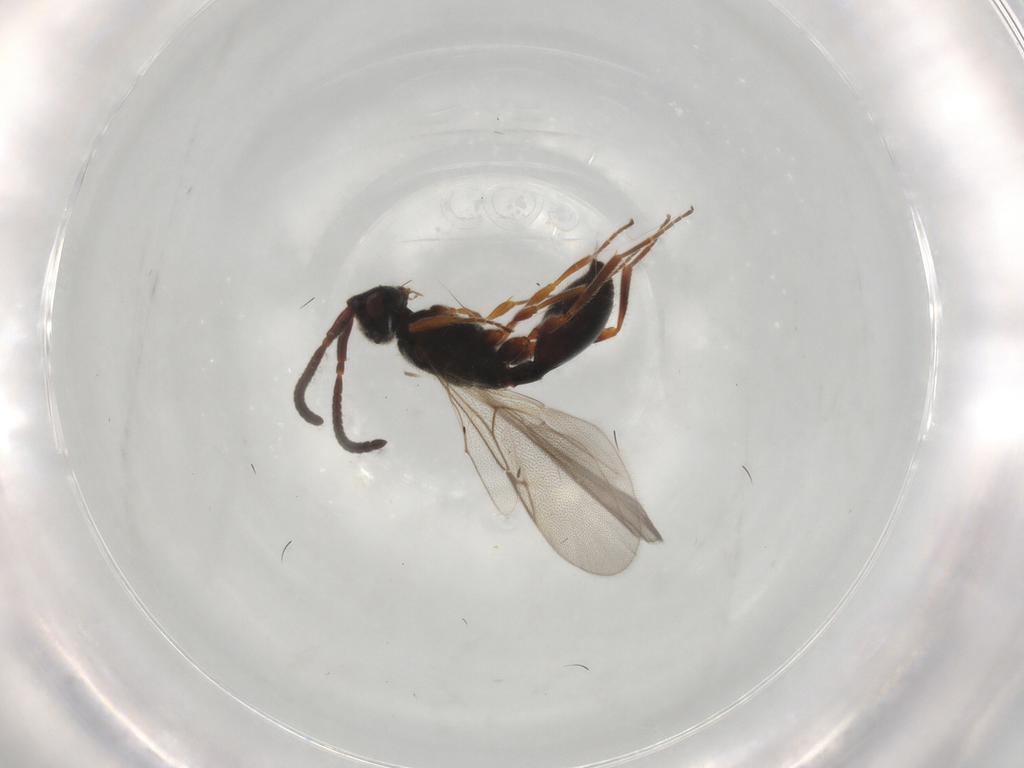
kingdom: Animalia
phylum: Arthropoda
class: Insecta
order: Hymenoptera
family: Diapriidae
